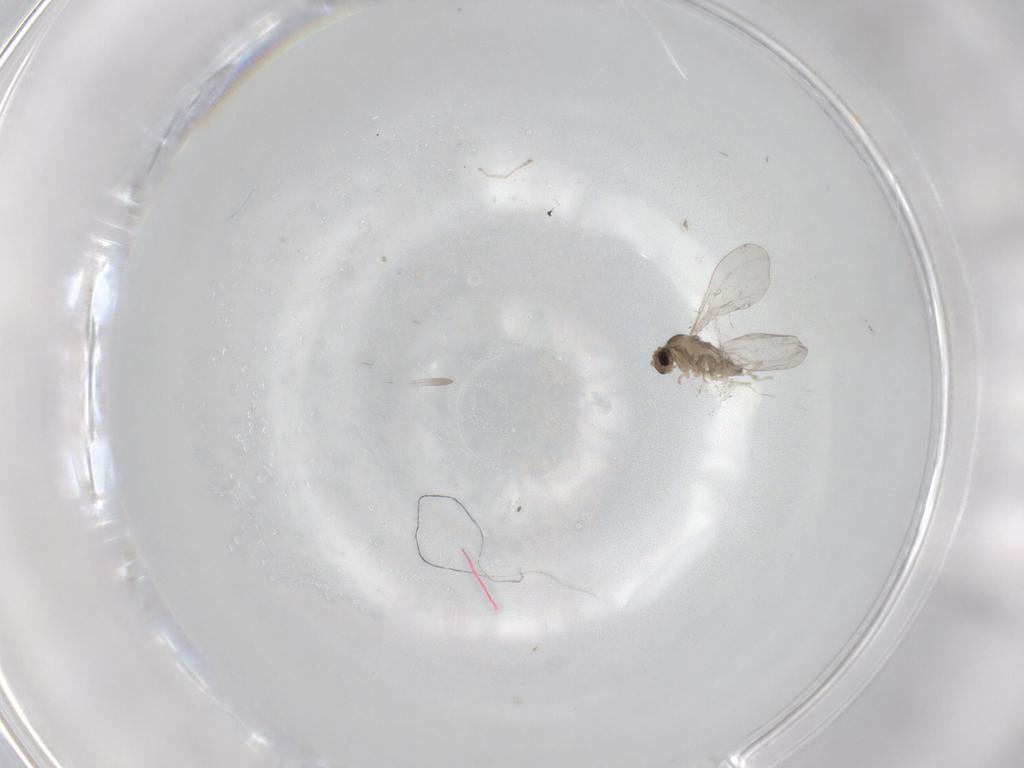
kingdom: Animalia
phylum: Arthropoda
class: Insecta
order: Diptera
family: Cecidomyiidae
